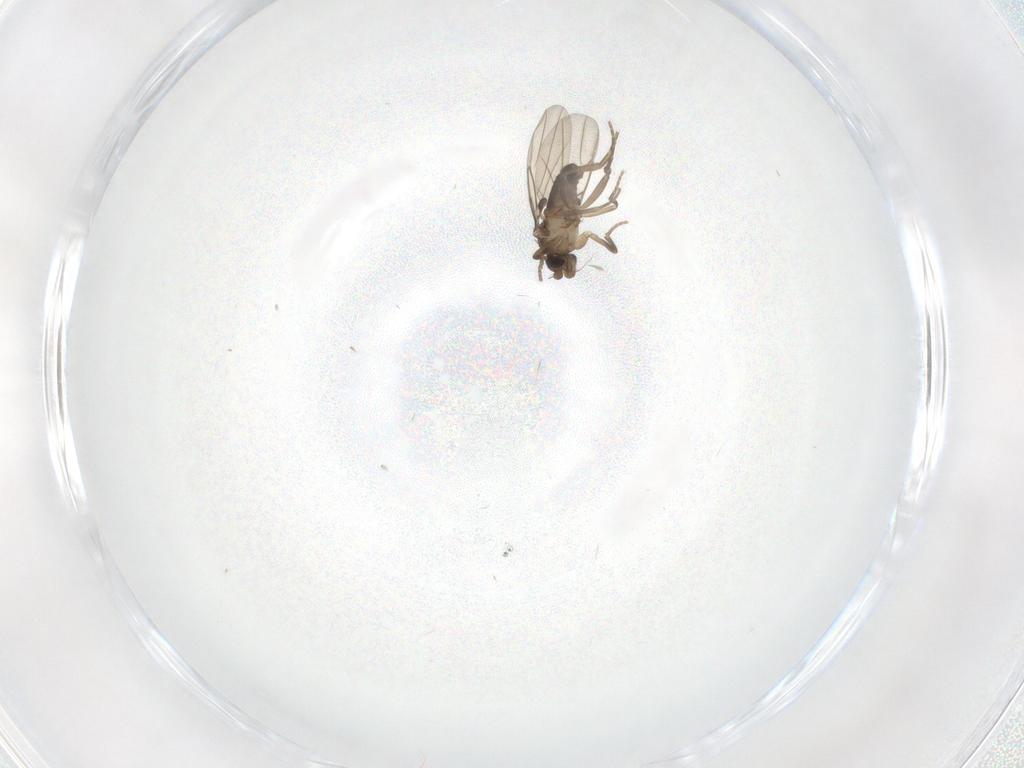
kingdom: Animalia
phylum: Arthropoda
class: Insecta
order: Diptera
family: Phoridae
